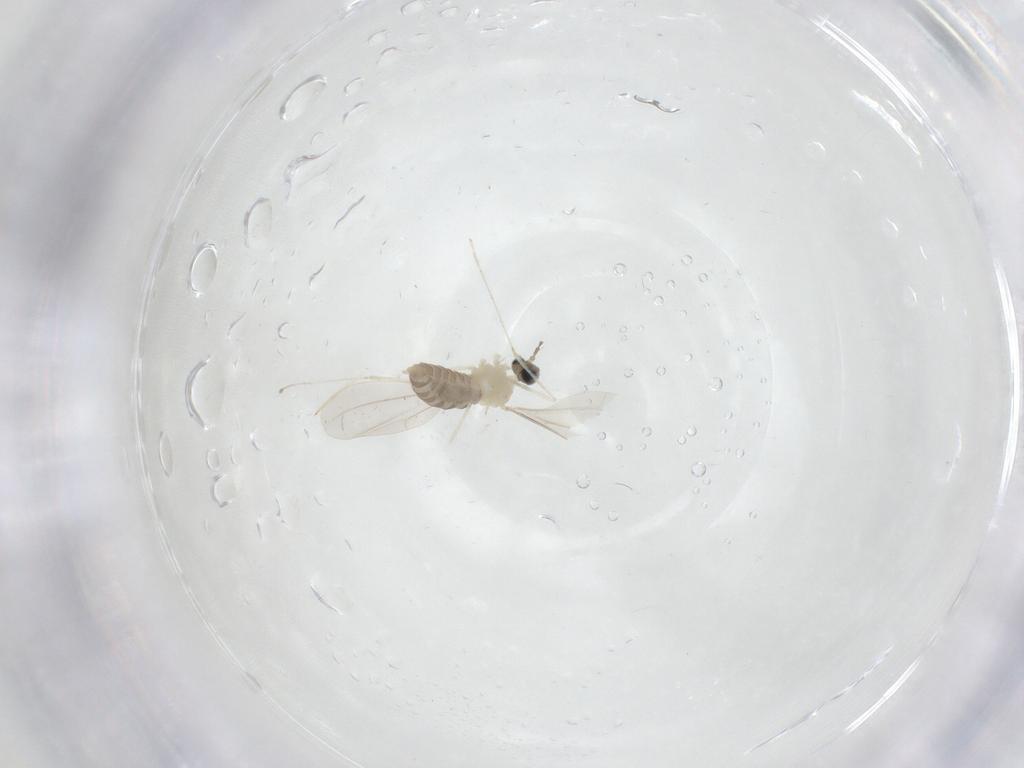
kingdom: Animalia
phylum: Arthropoda
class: Insecta
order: Diptera
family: Cecidomyiidae
